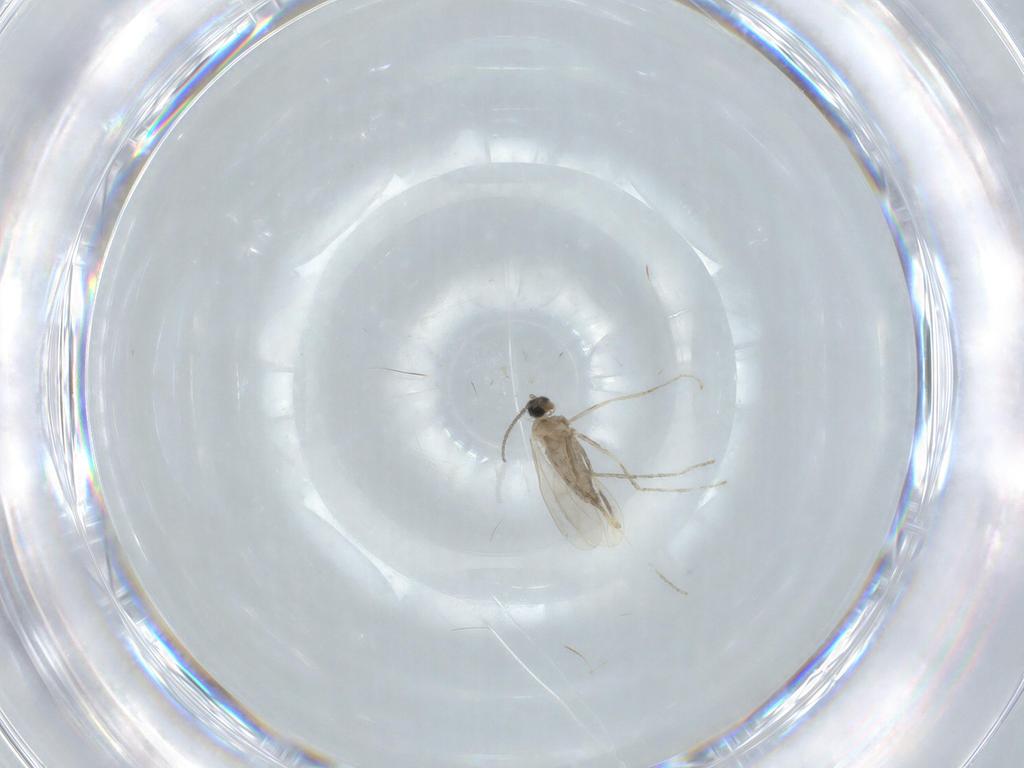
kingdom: Animalia
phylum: Arthropoda
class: Insecta
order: Diptera
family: Cecidomyiidae
